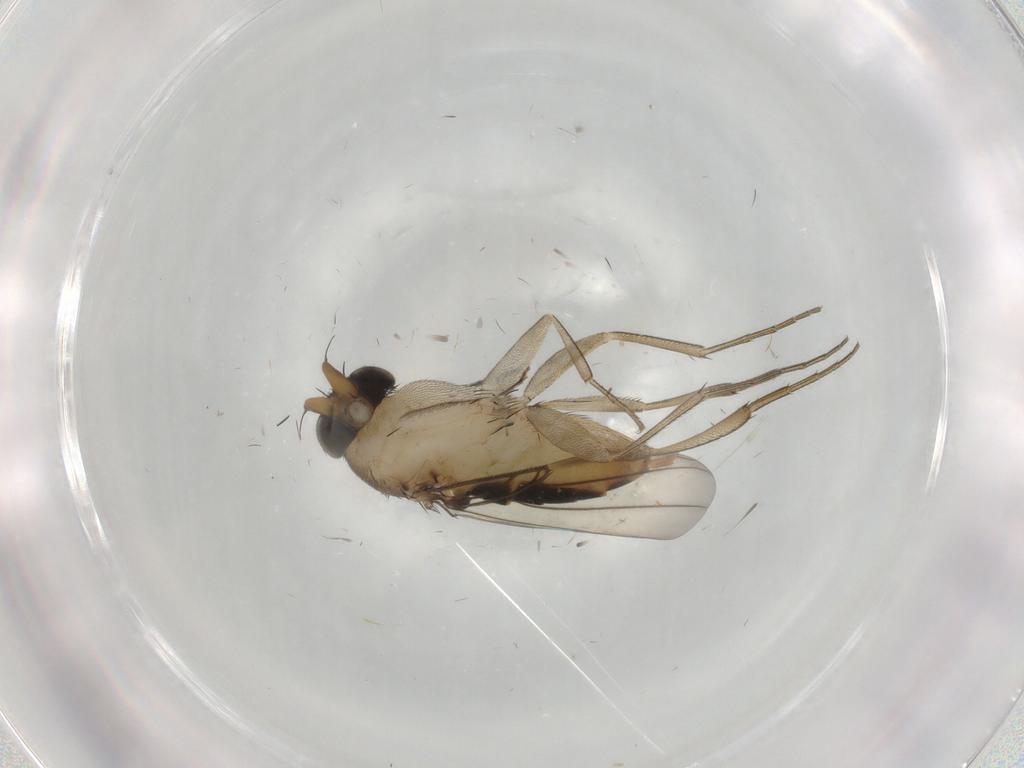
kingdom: Animalia
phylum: Arthropoda
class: Insecta
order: Diptera
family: Phoridae
